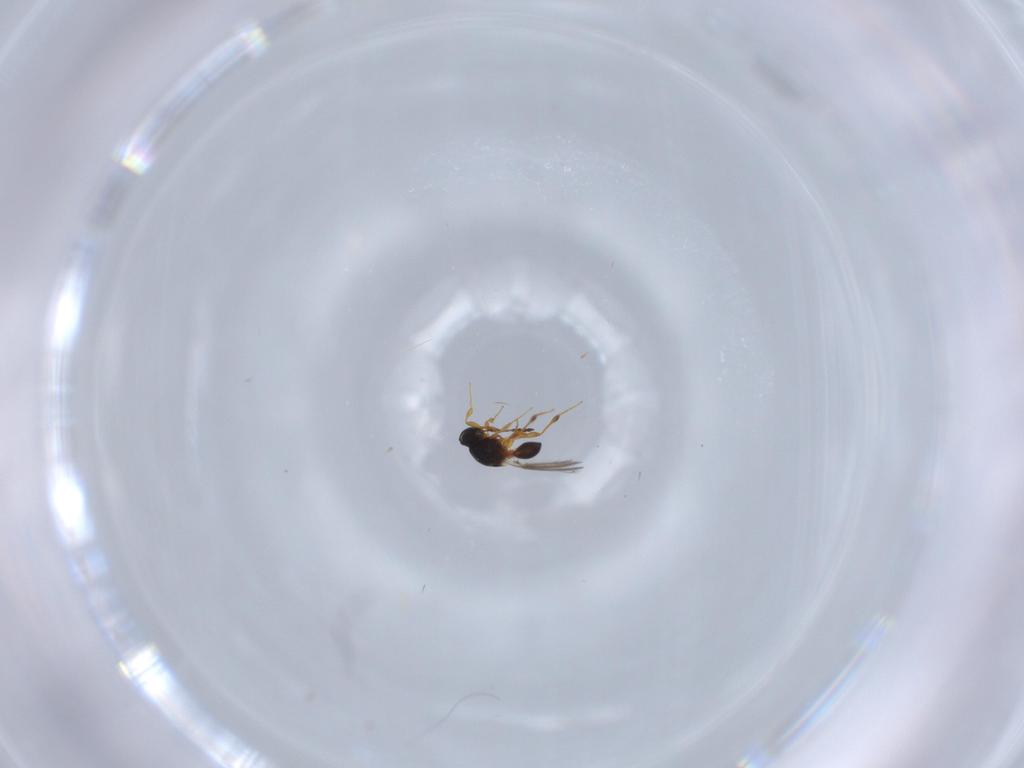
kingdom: Animalia
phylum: Arthropoda
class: Insecta
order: Hymenoptera
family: Platygastridae
